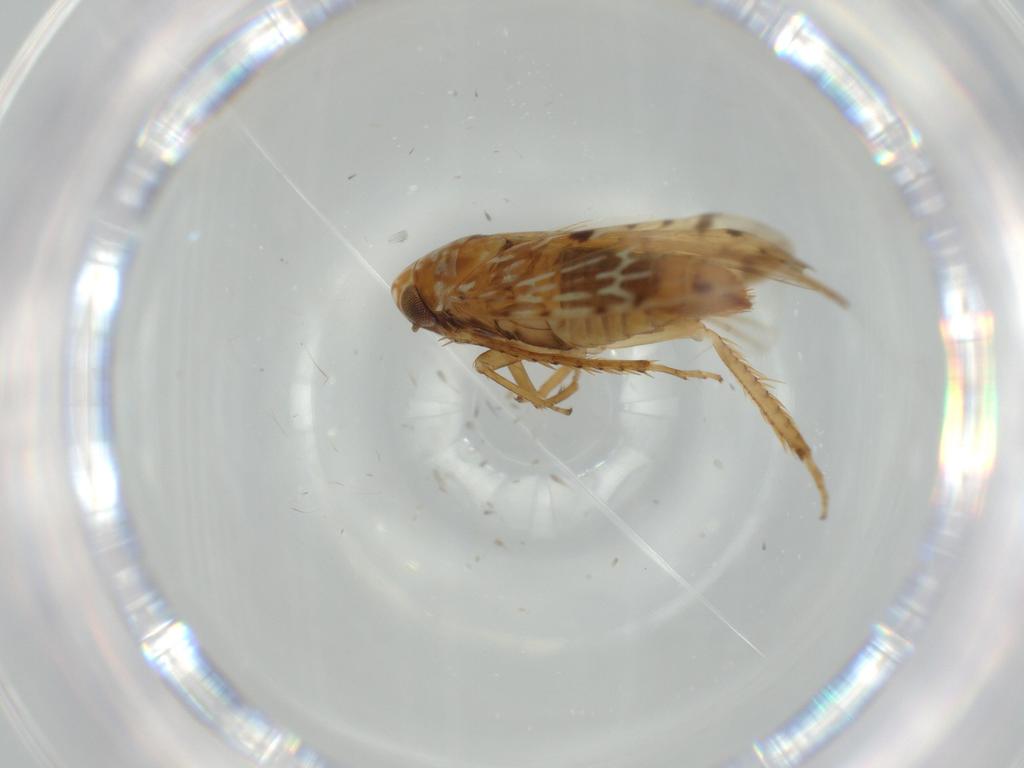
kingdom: Animalia
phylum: Arthropoda
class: Insecta
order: Hemiptera
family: Cicadellidae
